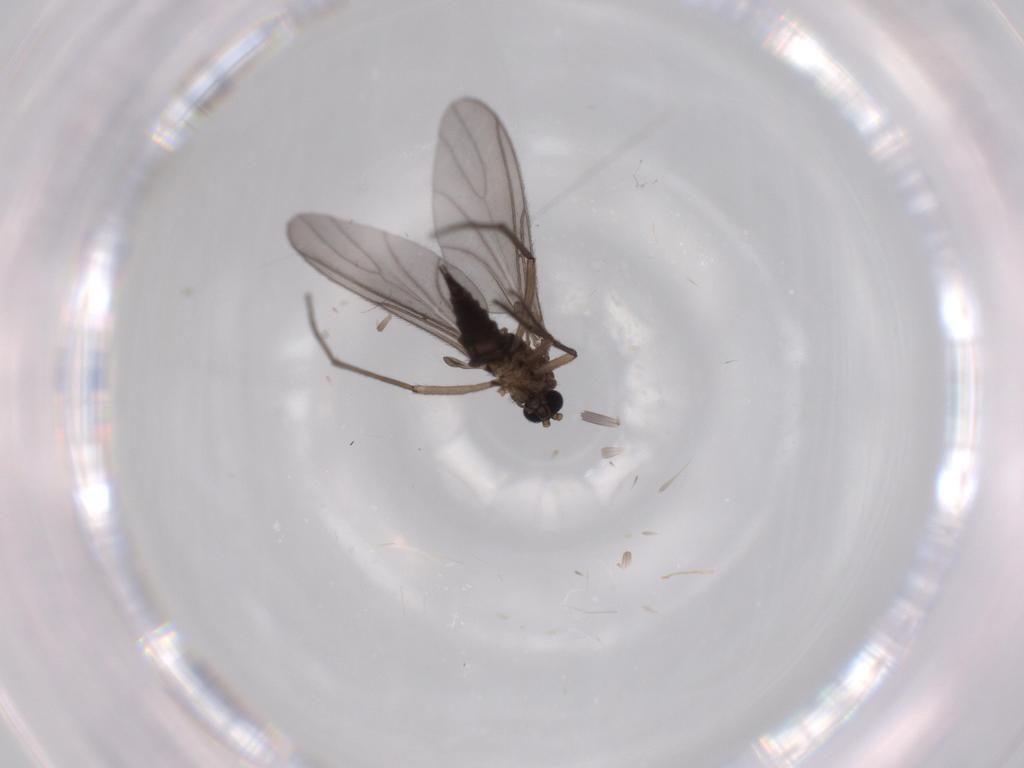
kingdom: Animalia
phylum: Arthropoda
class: Insecta
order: Diptera
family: Sciaridae
